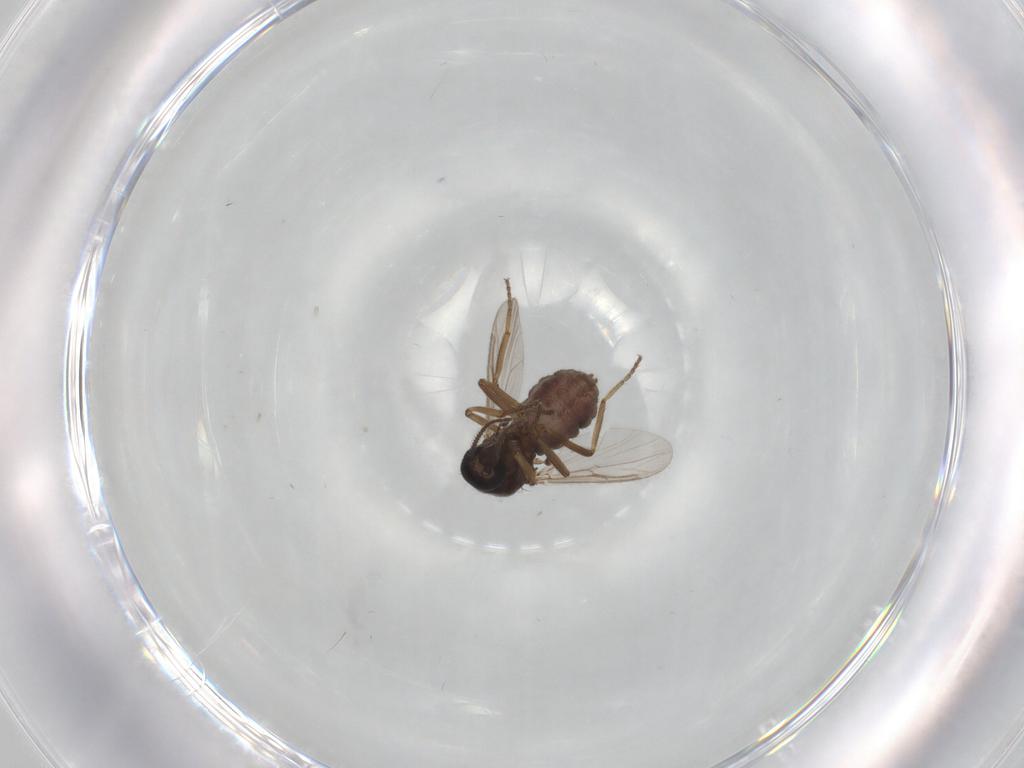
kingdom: Animalia
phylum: Arthropoda
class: Insecta
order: Diptera
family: Ceratopogonidae
